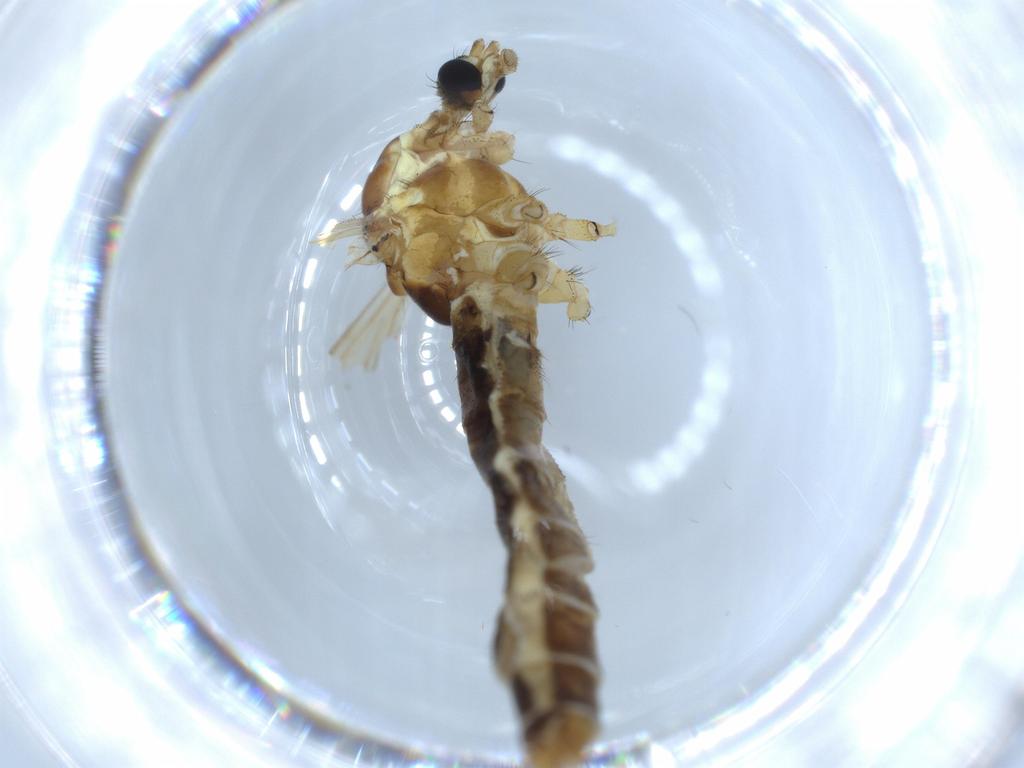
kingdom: Animalia
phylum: Arthropoda
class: Insecta
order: Diptera
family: Limoniidae
